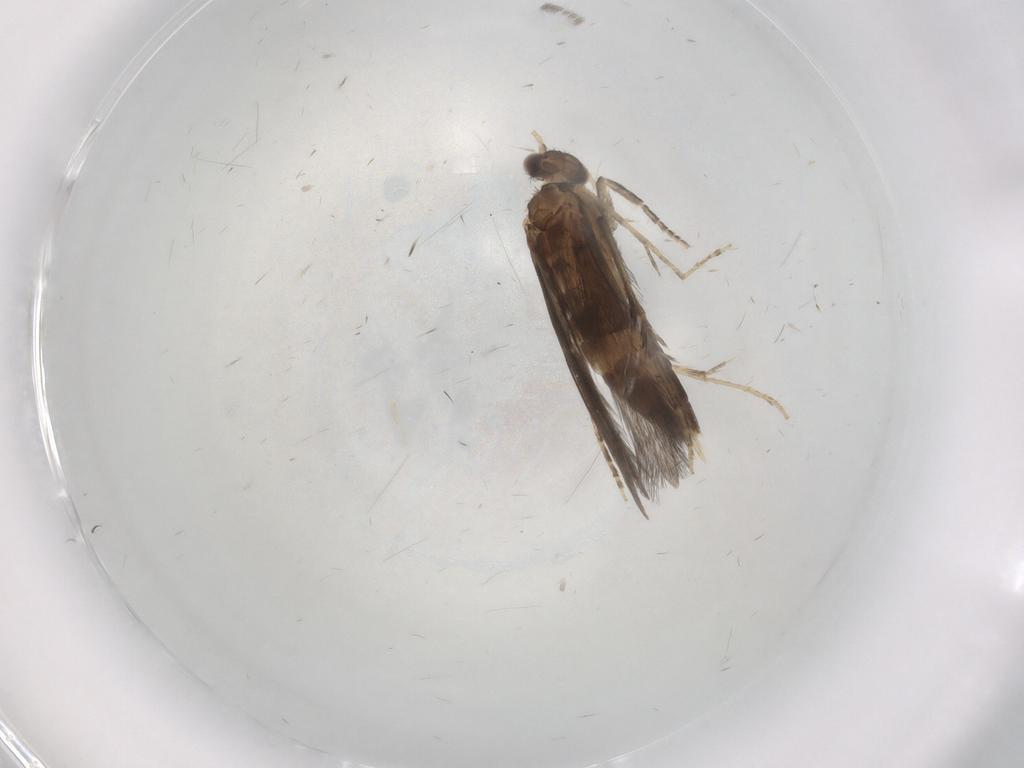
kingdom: Animalia
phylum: Arthropoda
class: Insecta
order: Trichoptera
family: Hydroptilidae
